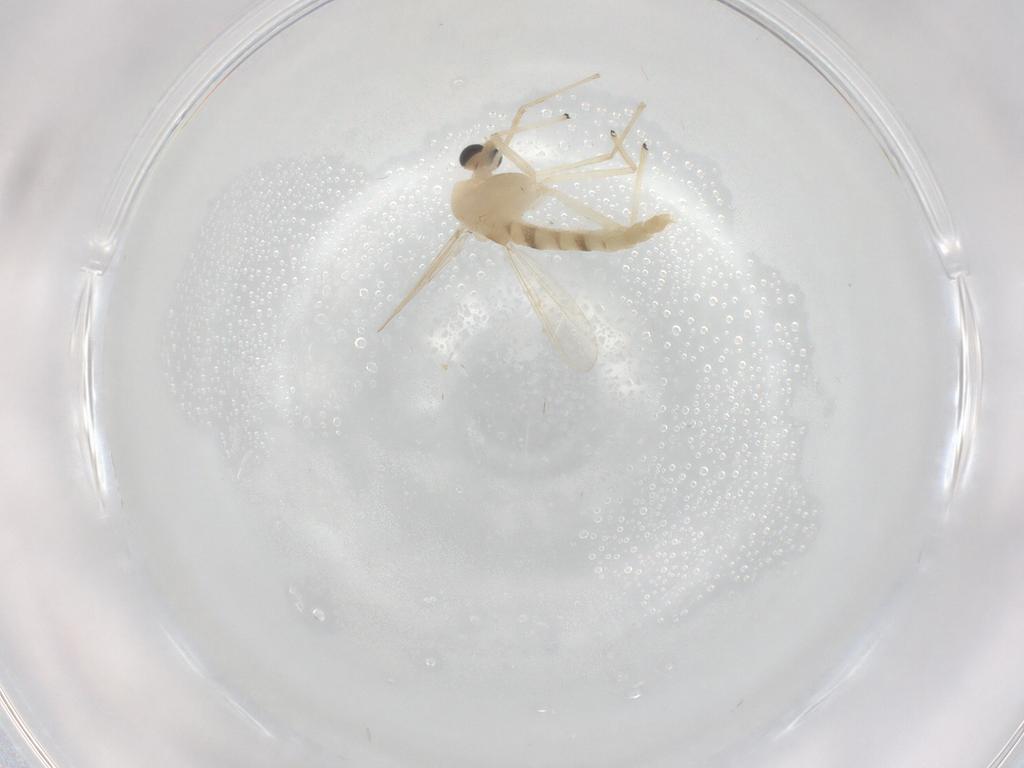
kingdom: Animalia
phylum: Arthropoda
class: Insecta
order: Diptera
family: Chironomidae
